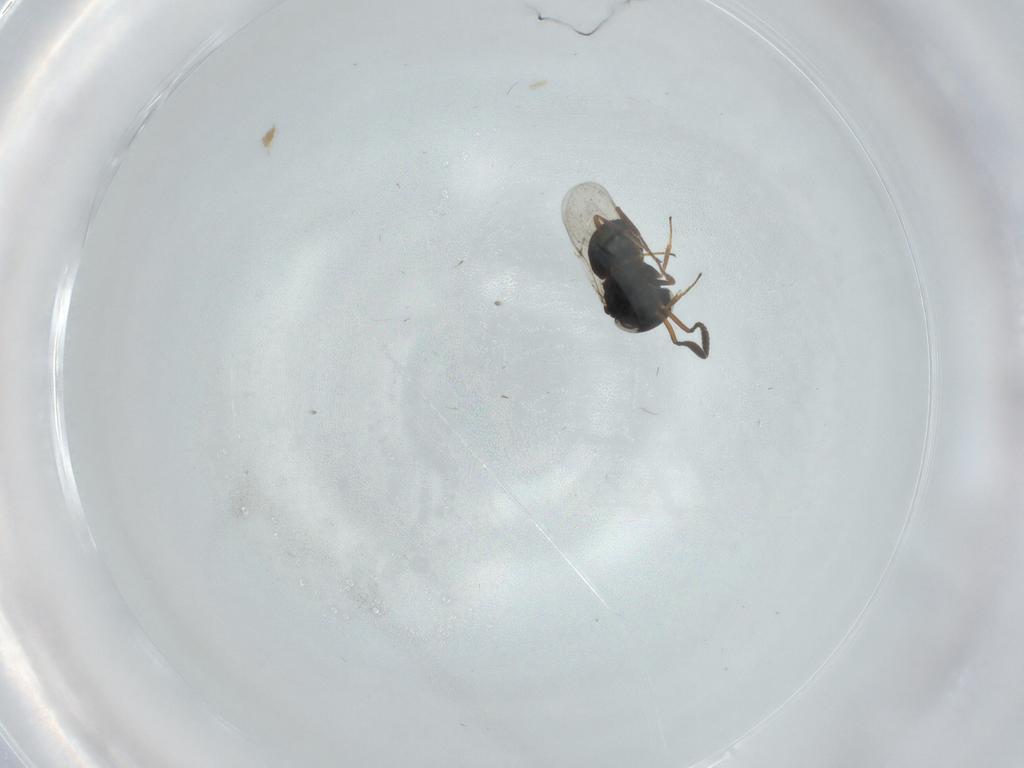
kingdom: Animalia
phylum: Arthropoda
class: Insecta
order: Hymenoptera
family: Scelionidae
